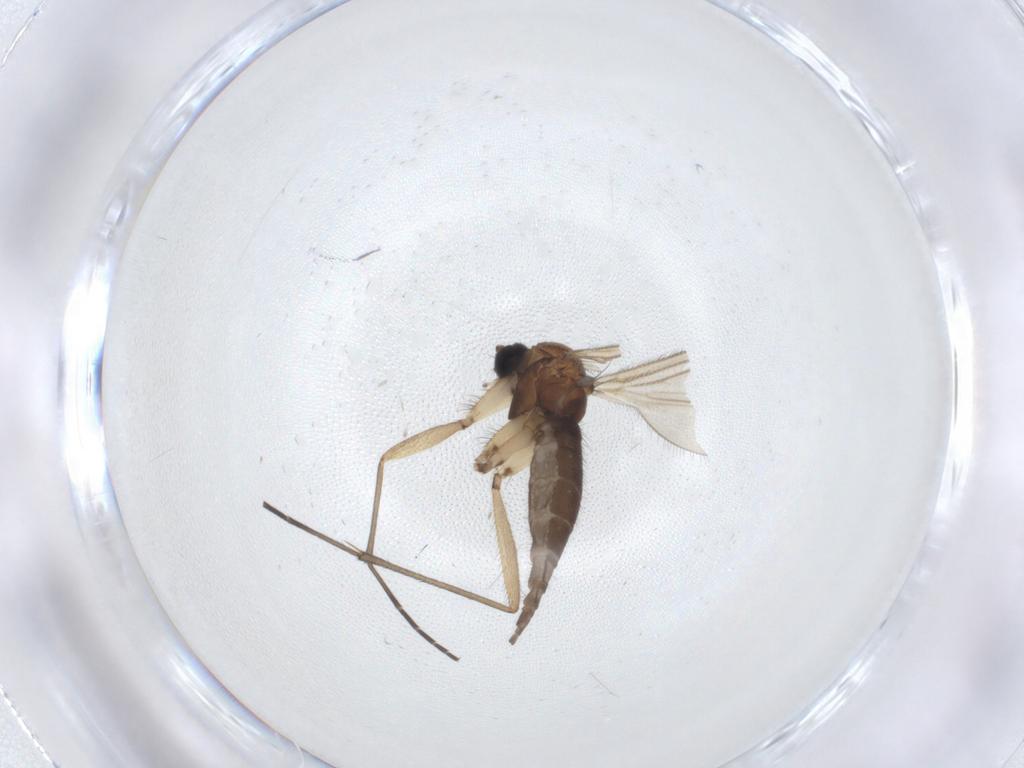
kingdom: Animalia
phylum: Arthropoda
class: Insecta
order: Diptera
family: Sciaridae
